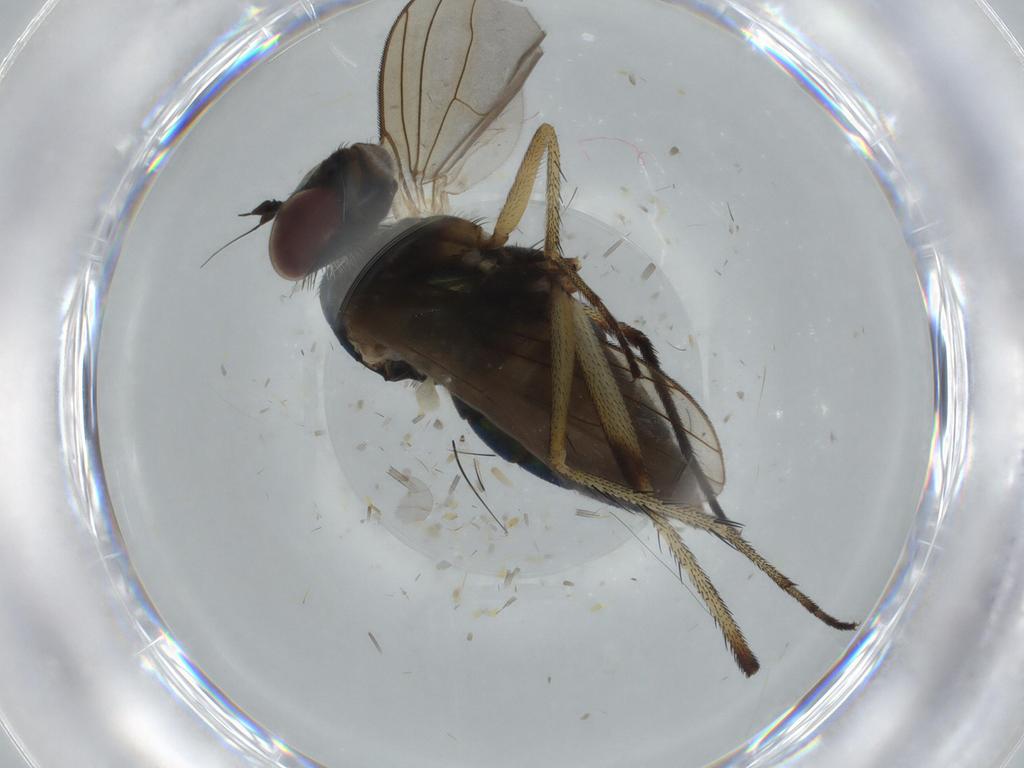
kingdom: Animalia
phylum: Arthropoda
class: Insecta
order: Diptera
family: Dolichopodidae
